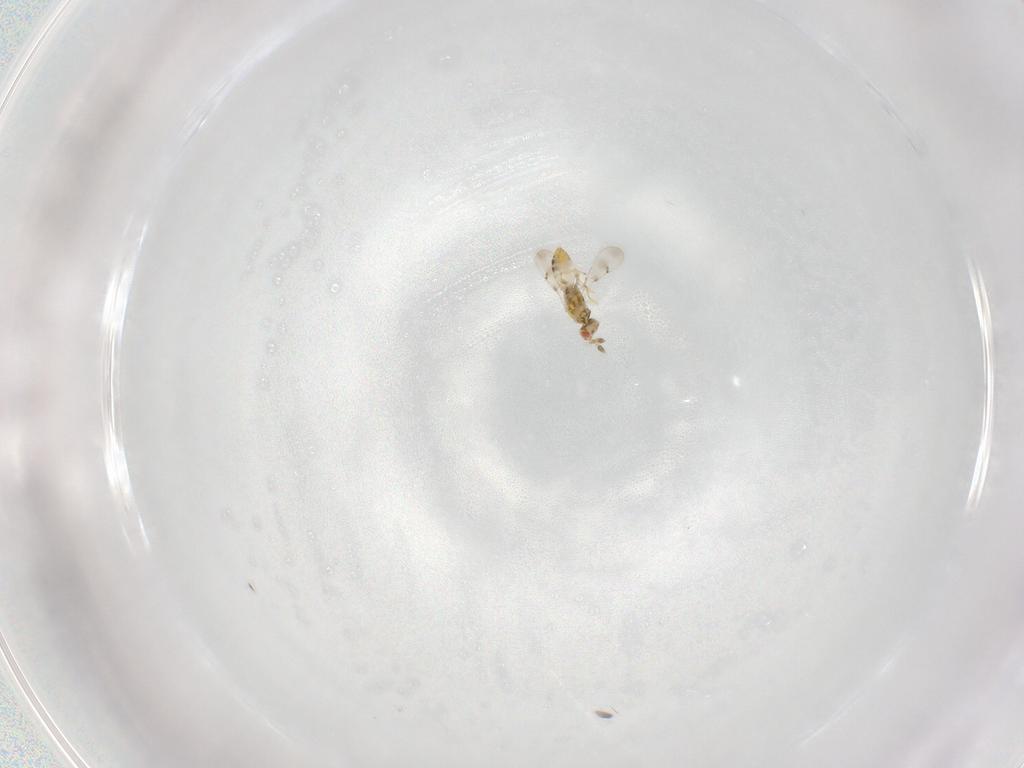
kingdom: Animalia
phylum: Arthropoda
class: Insecta
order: Hymenoptera
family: Eulophidae
